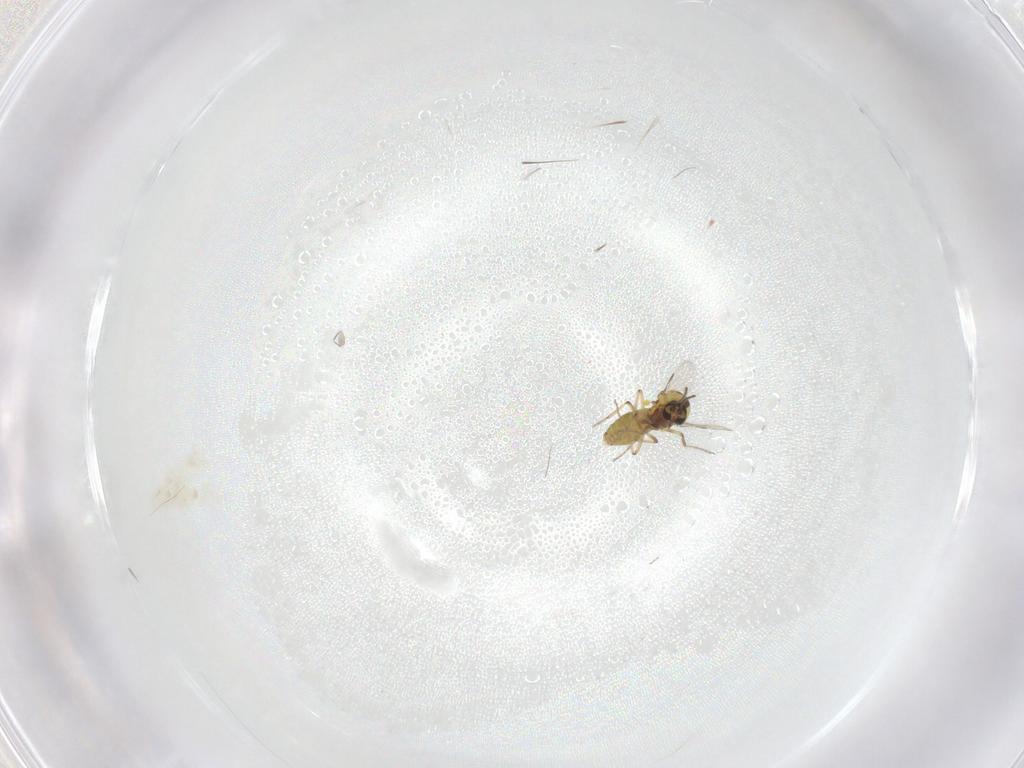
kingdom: Animalia
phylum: Arthropoda
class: Insecta
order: Diptera
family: Ceratopogonidae
